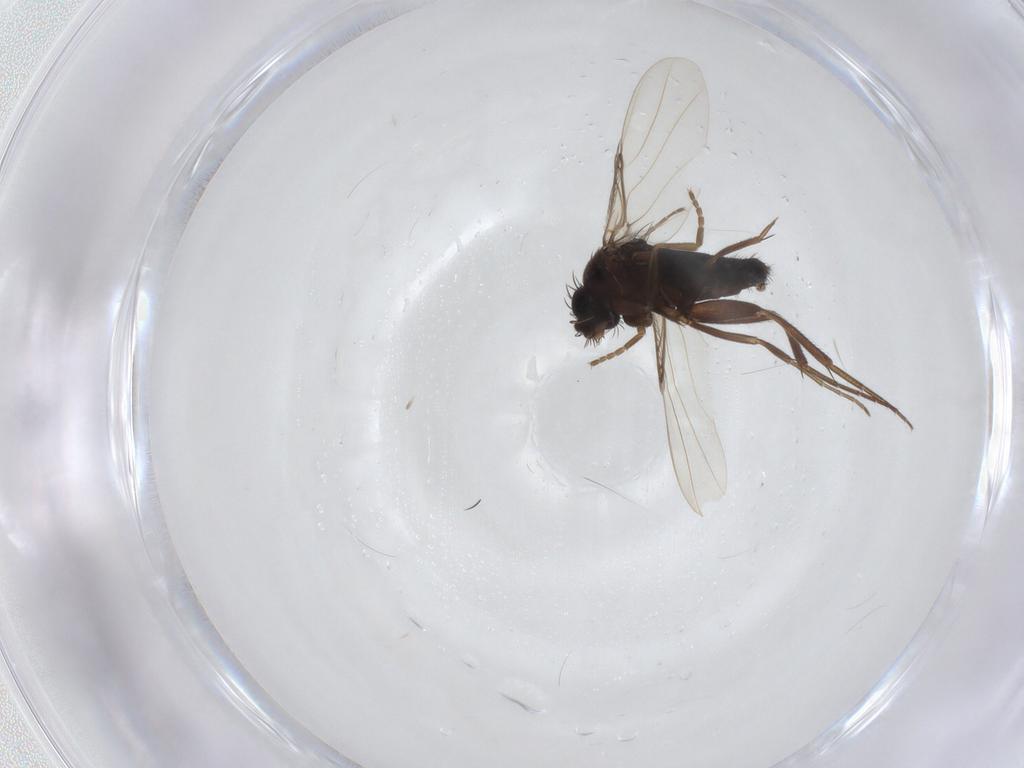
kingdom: Animalia
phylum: Arthropoda
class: Insecta
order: Diptera
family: Phoridae
